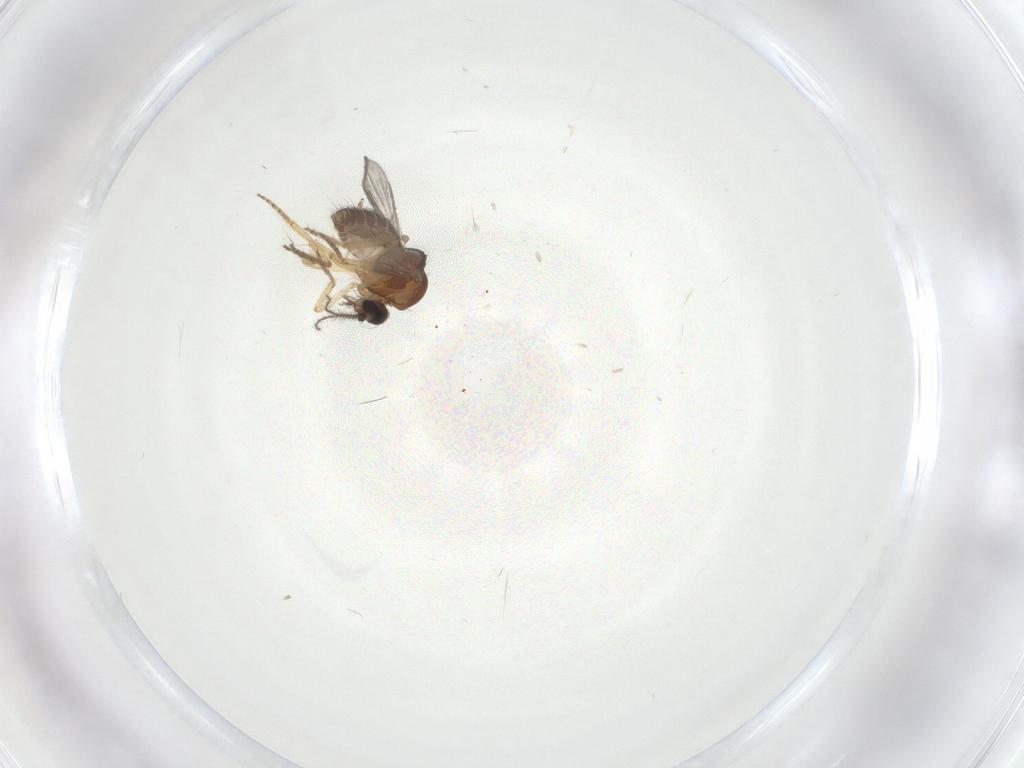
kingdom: Animalia
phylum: Arthropoda
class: Insecta
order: Diptera
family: Ceratopogonidae
